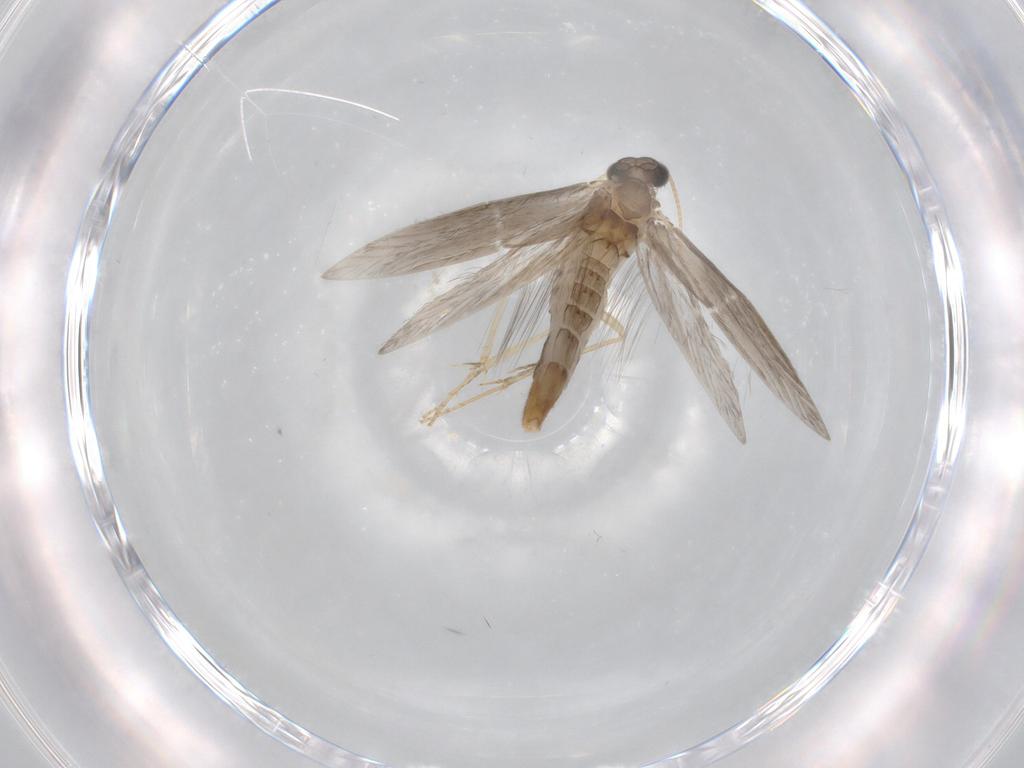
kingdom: Animalia
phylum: Arthropoda
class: Insecta
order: Trichoptera
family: Hydroptilidae
